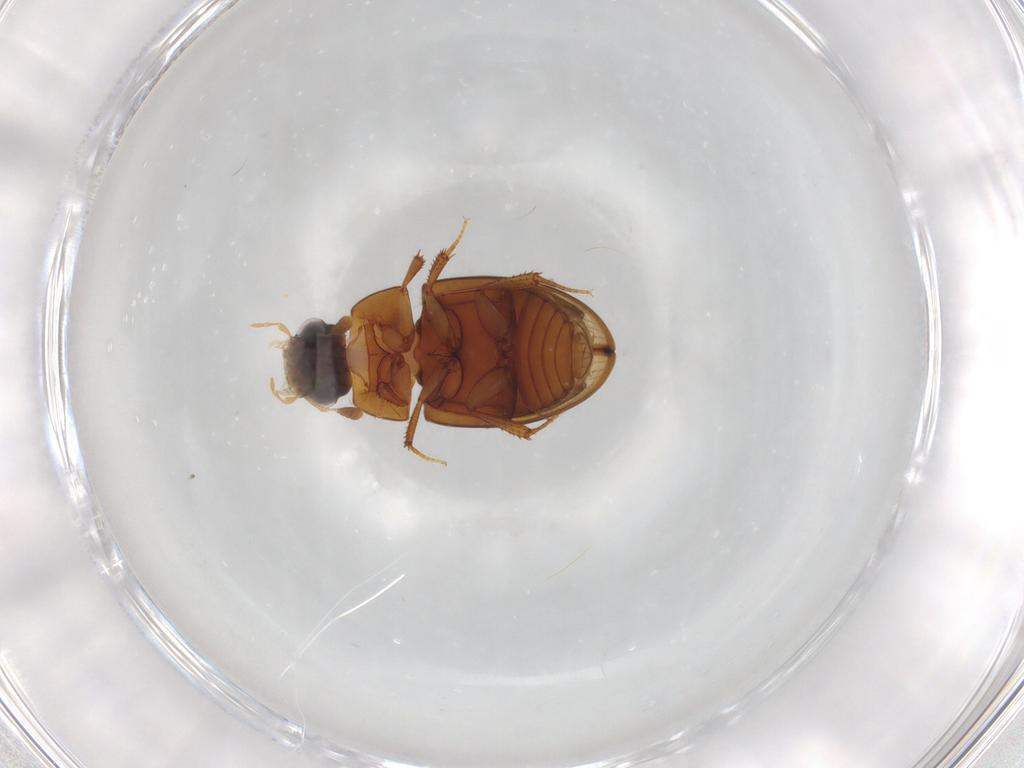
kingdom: Animalia
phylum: Arthropoda
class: Insecta
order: Coleoptera
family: Hydrophilidae
